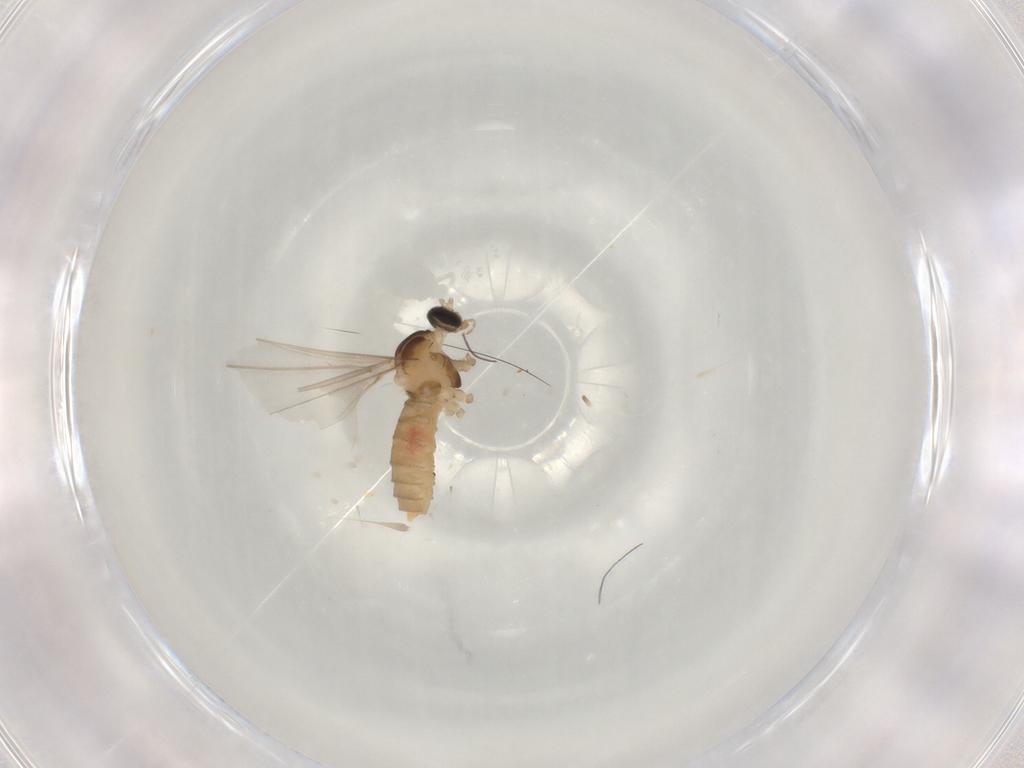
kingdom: Animalia
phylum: Arthropoda
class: Insecta
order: Diptera
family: Cecidomyiidae
